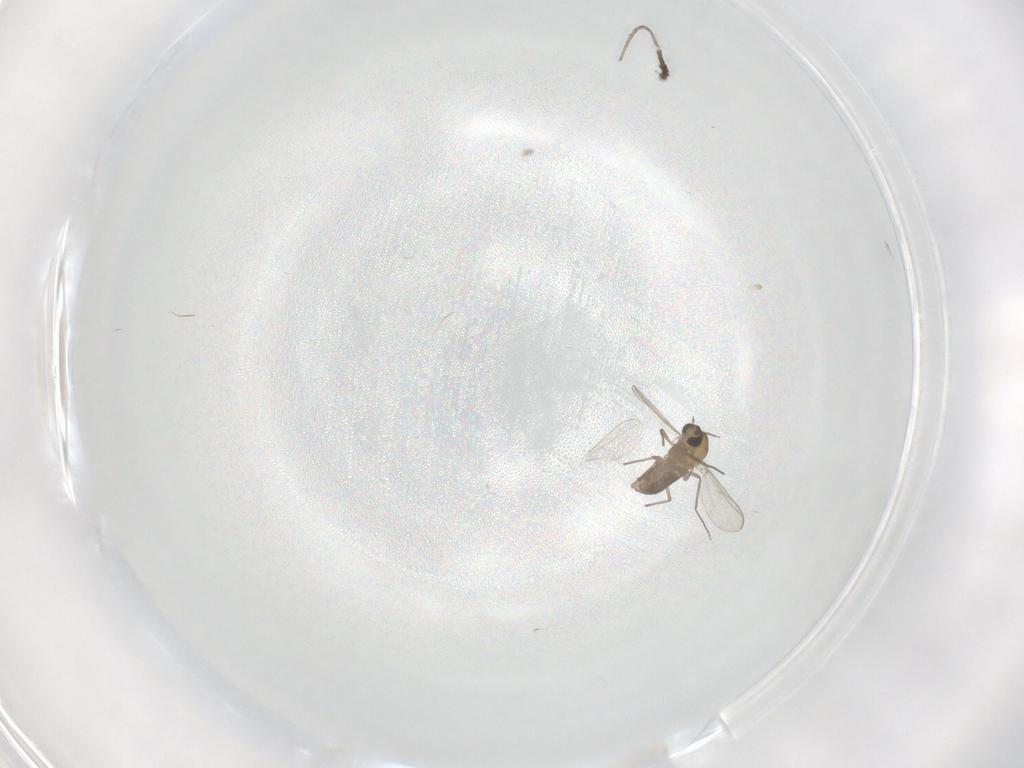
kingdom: Animalia
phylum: Arthropoda
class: Insecta
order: Diptera
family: Chironomidae
